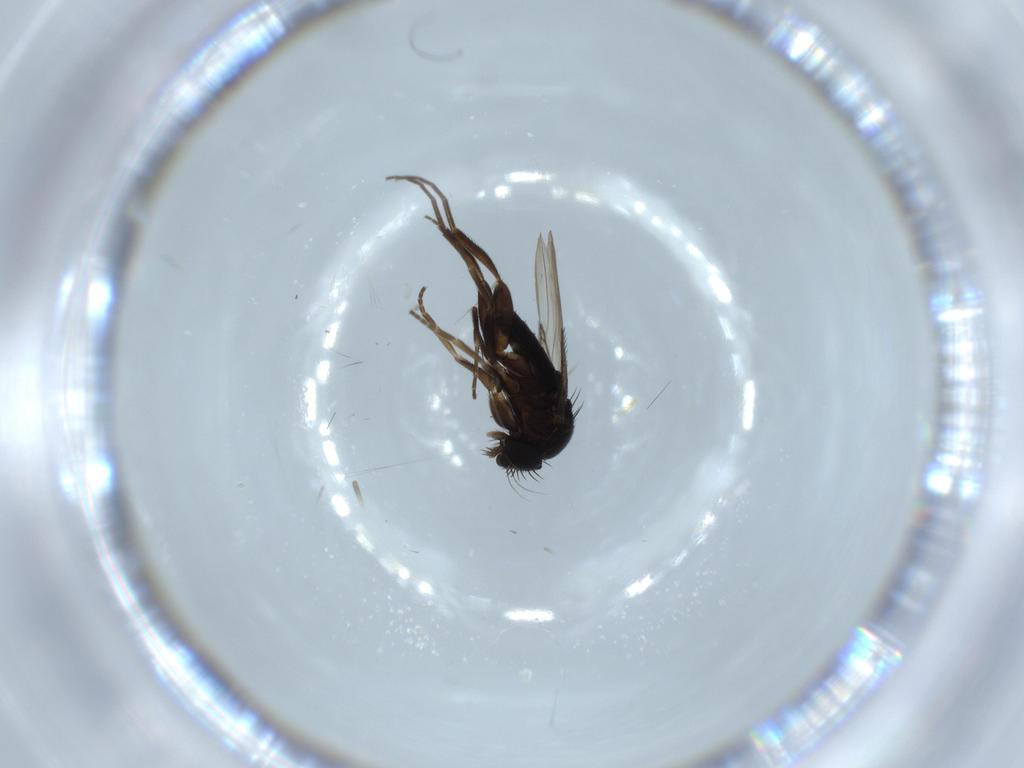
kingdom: Animalia
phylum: Arthropoda
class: Insecta
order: Diptera
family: Phoridae
